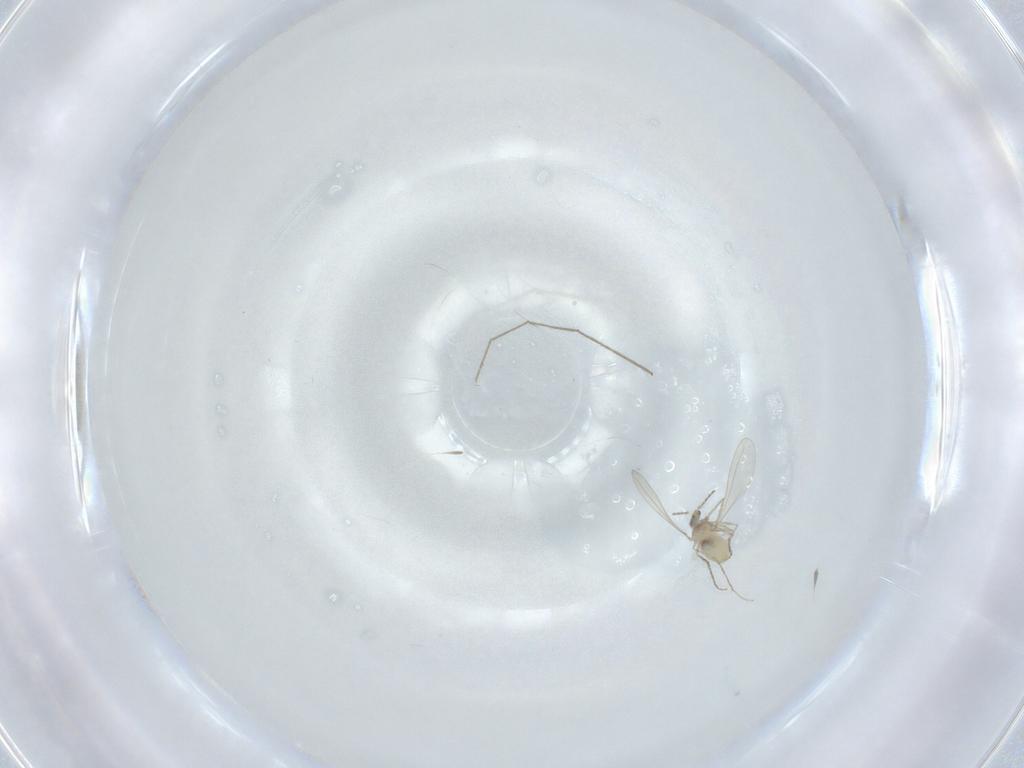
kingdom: Animalia
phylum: Arthropoda
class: Insecta
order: Diptera
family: Cecidomyiidae
